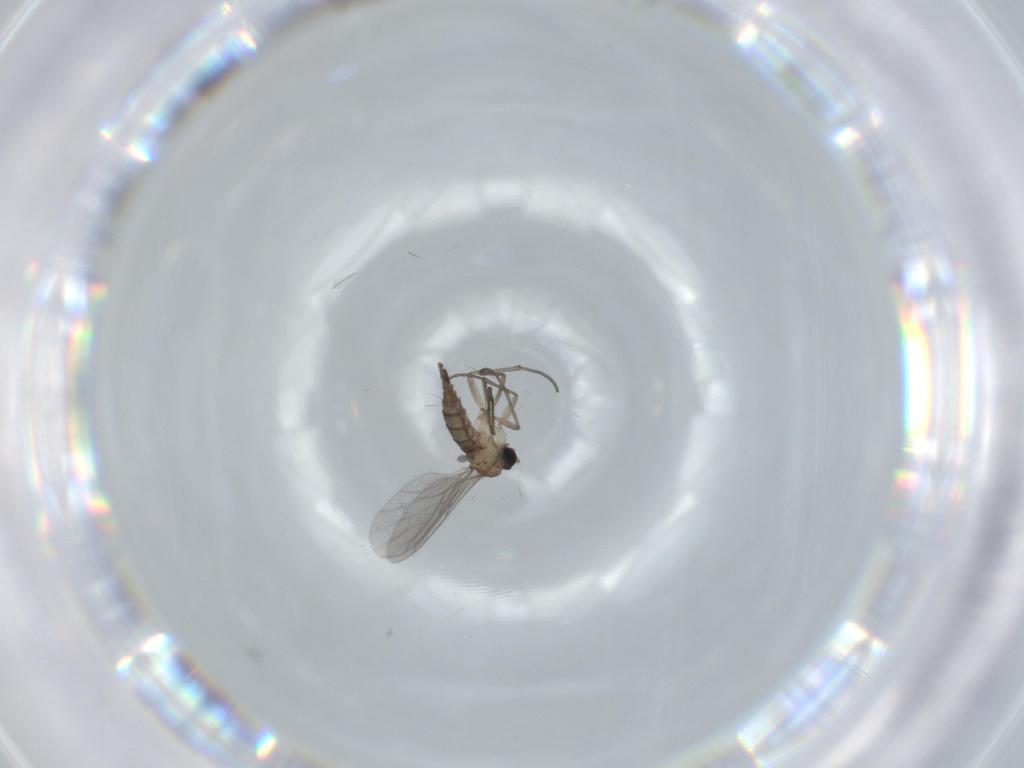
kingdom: Animalia
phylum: Arthropoda
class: Insecta
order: Diptera
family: Sciaridae
